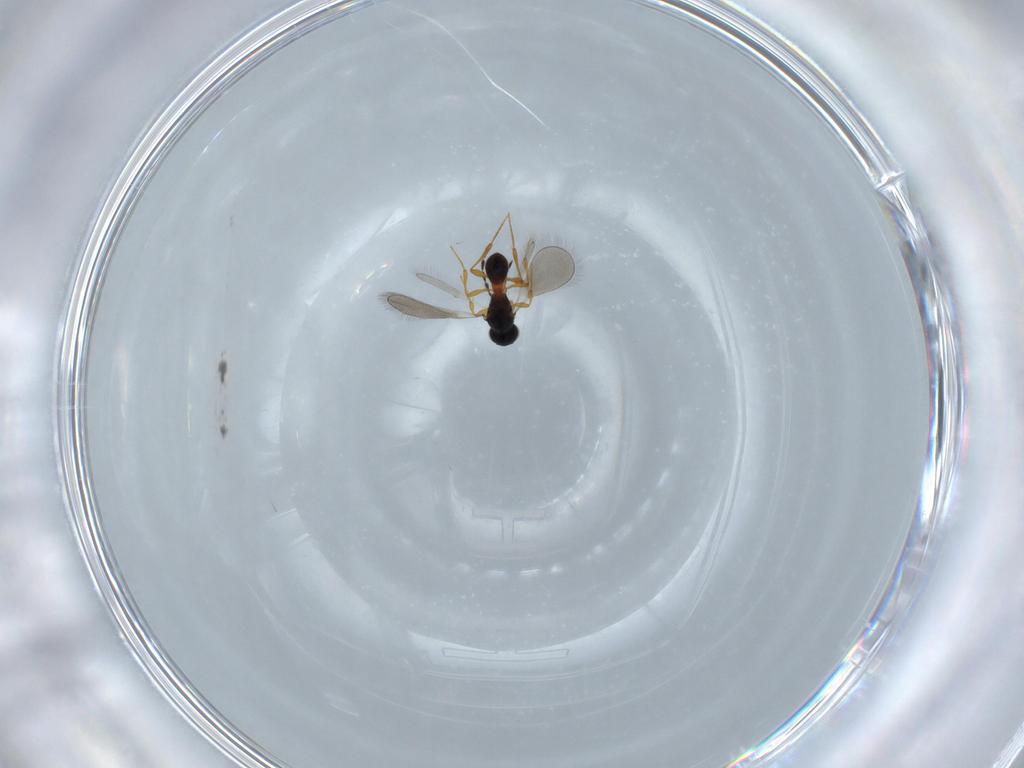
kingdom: Animalia
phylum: Arthropoda
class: Insecta
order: Hymenoptera
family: Platygastridae
